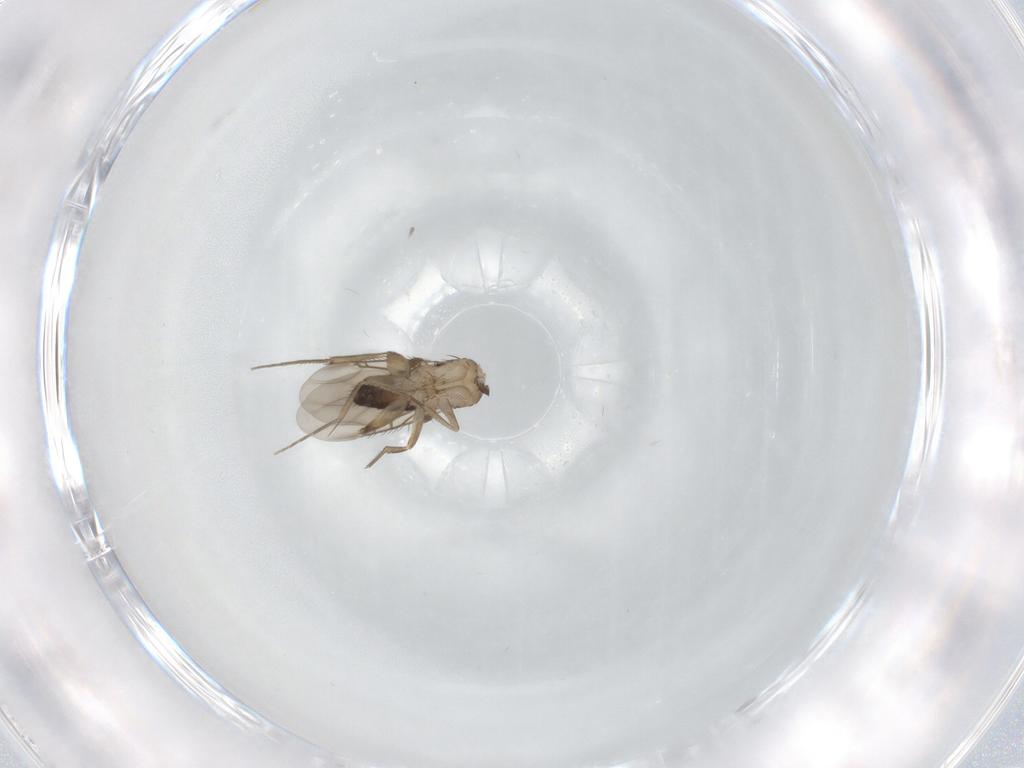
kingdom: Animalia
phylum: Arthropoda
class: Insecta
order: Diptera
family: Phoridae
